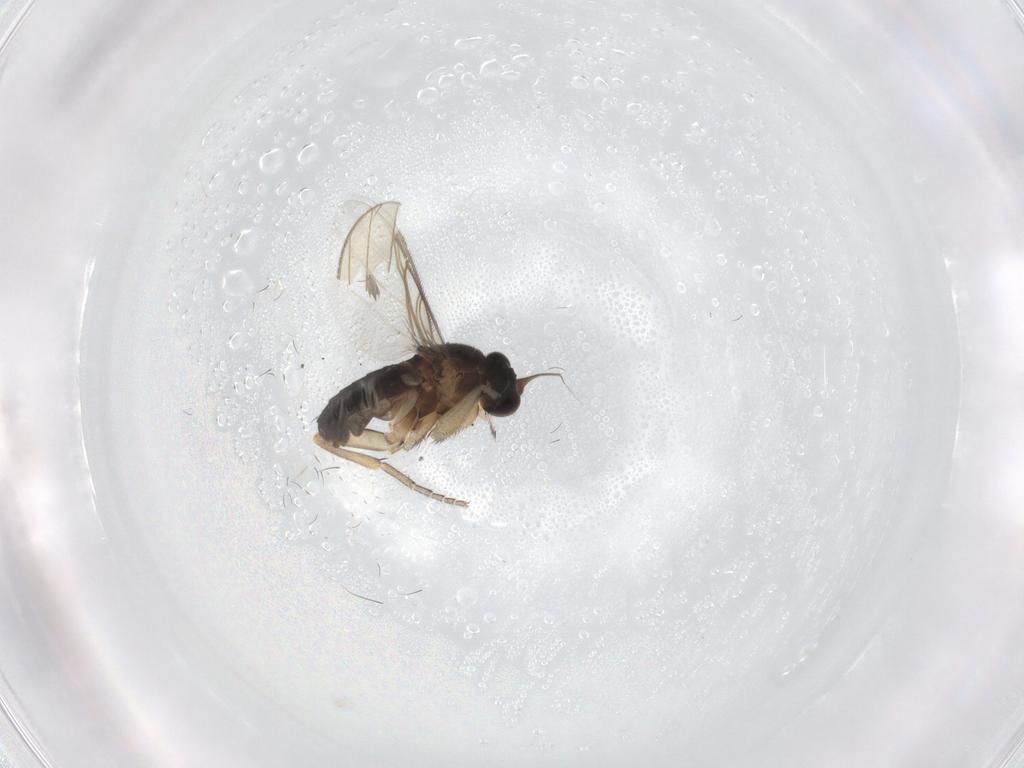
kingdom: Animalia
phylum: Arthropoda
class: Insecta
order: Diptera
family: Phoridae
